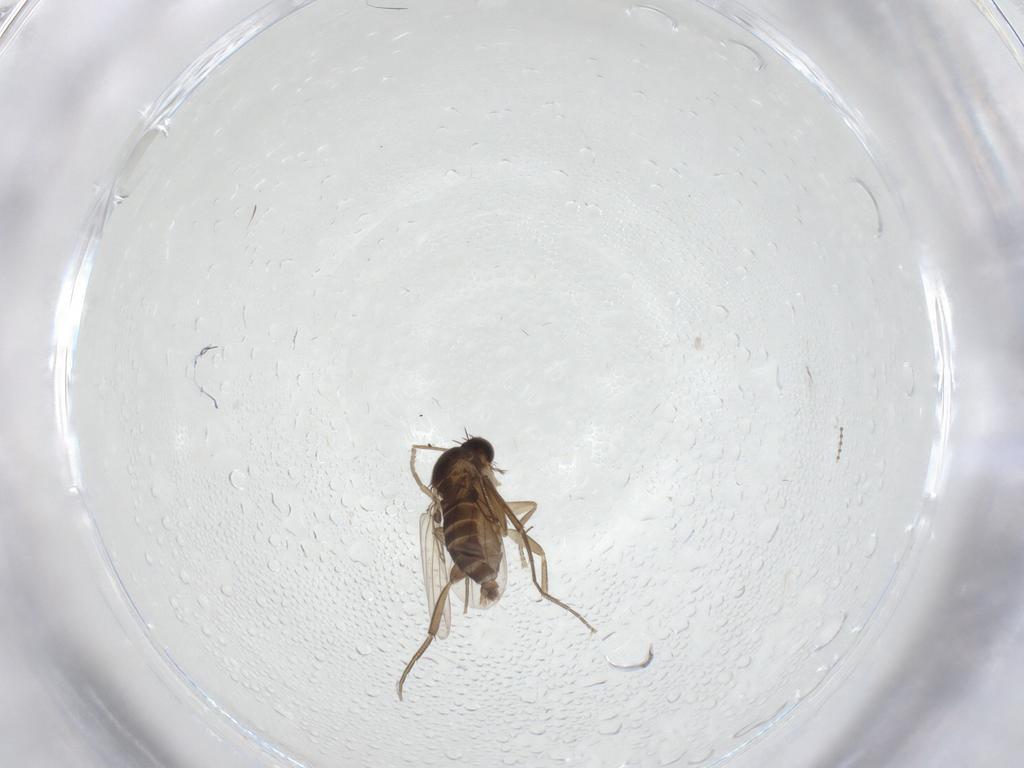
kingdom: Animalia
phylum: Arthropoda
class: Insecta
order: Diptera
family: Phoridae
